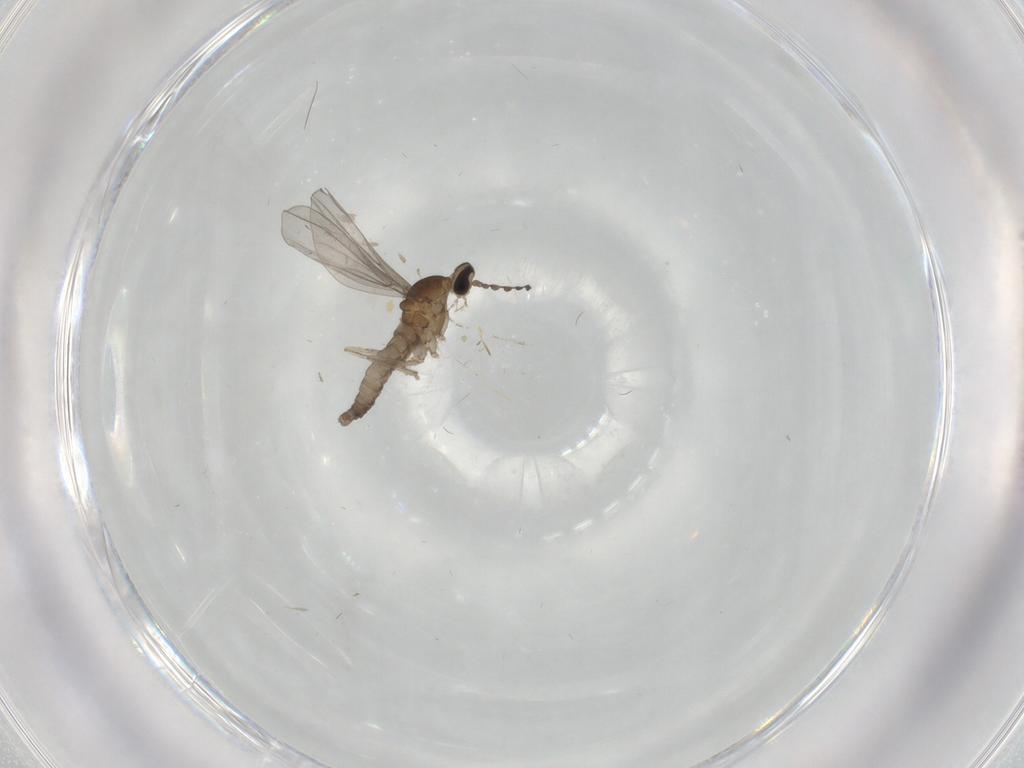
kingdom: Animalia
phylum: Arthropoda
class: Insecta
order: Diptera
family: Cecidomyiidae
